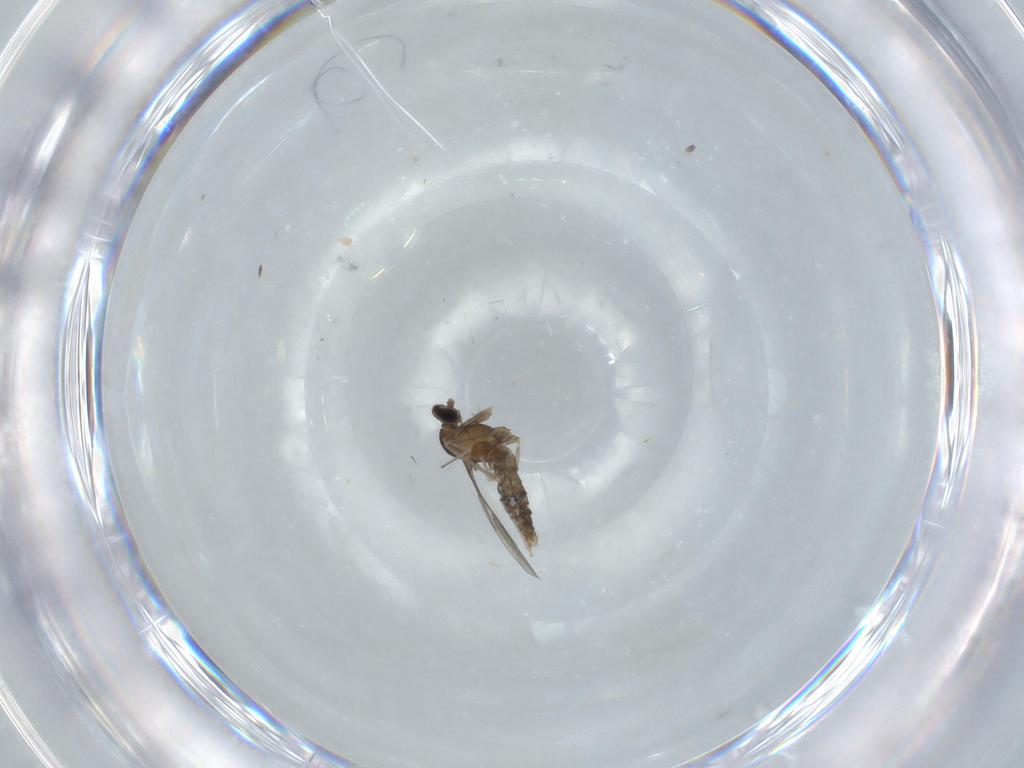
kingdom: Animalia
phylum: Arthropoda
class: Insecta
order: Diptera
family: Cecidomyiidae
